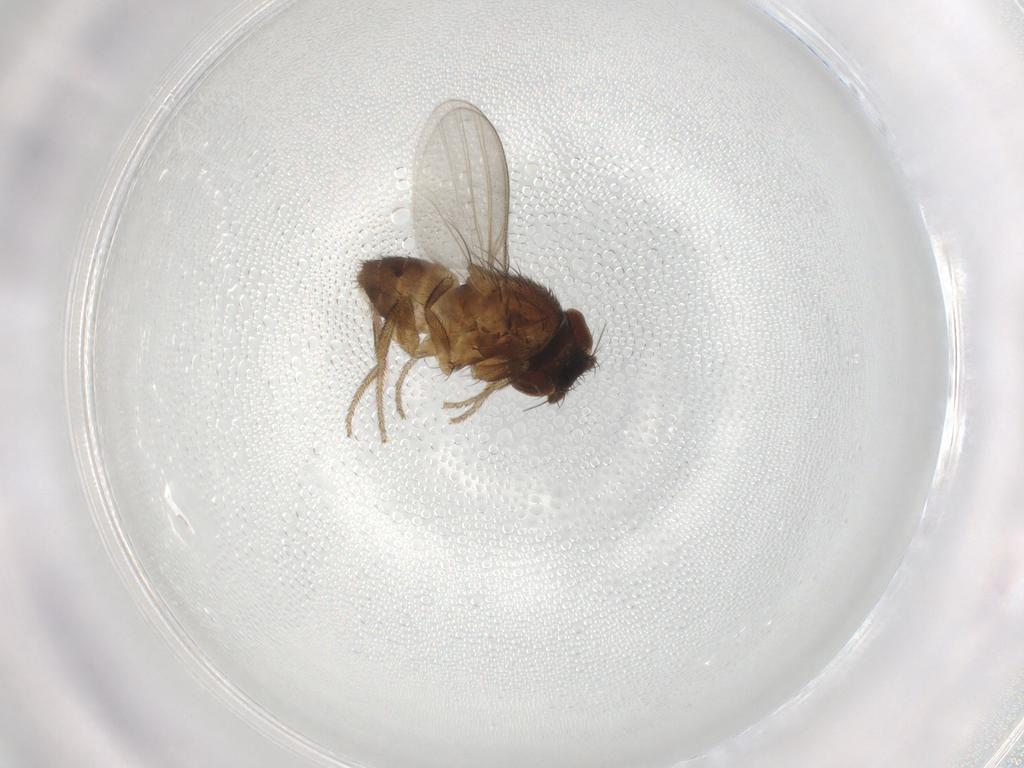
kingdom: Animalia
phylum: Arthropoda
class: Insecta
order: Diptera
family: Milichiidae
